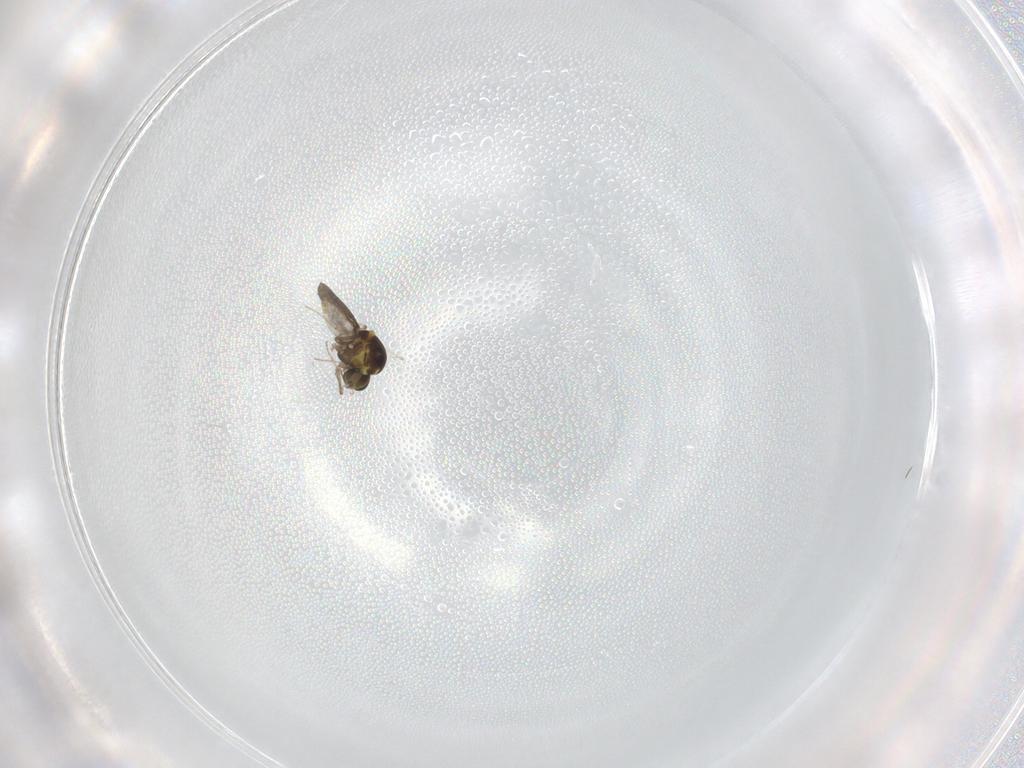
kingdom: Animalia
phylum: Arthropoda
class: Insecta
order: Diptera
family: Ceratopogonidae
